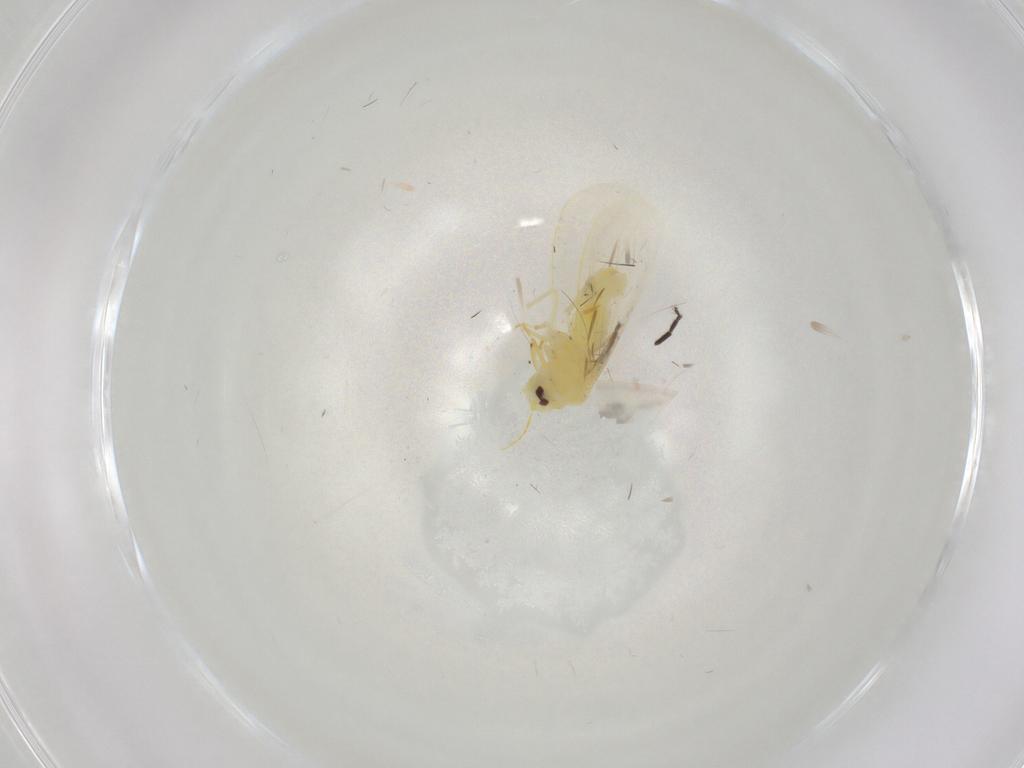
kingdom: Animalia
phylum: Arthropoda
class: Insecta
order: Hemiptera
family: Aleyrodidae
